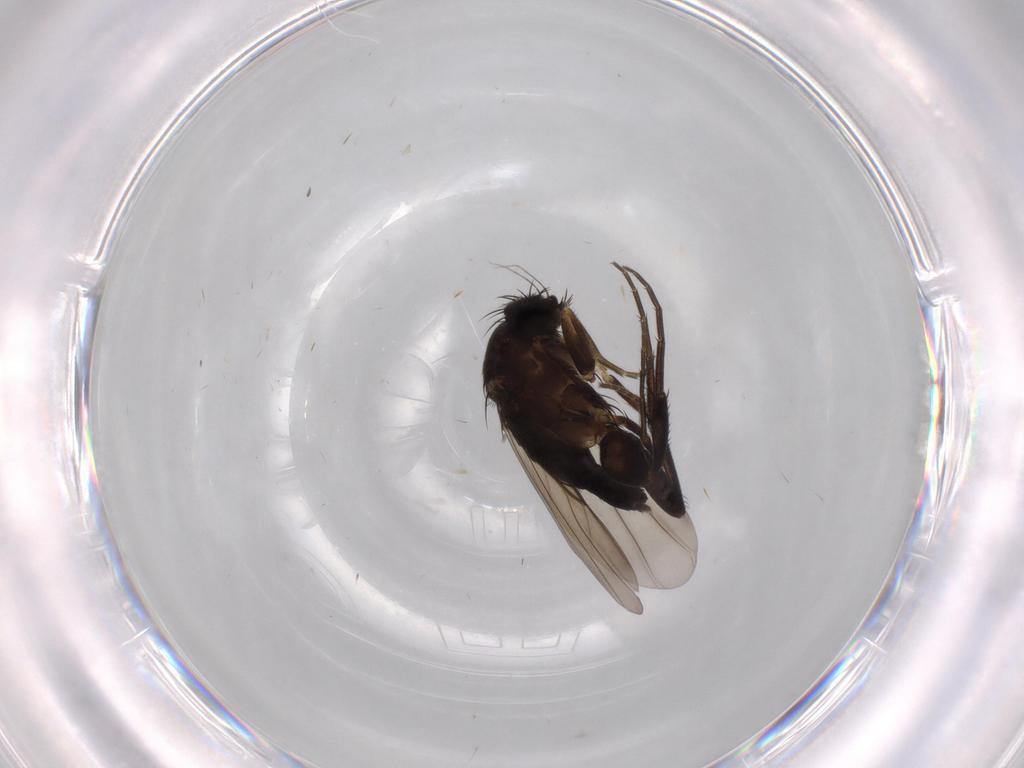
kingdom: Animalia
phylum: Arthropoda
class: Insecta
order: Diptera
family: Phoridae
